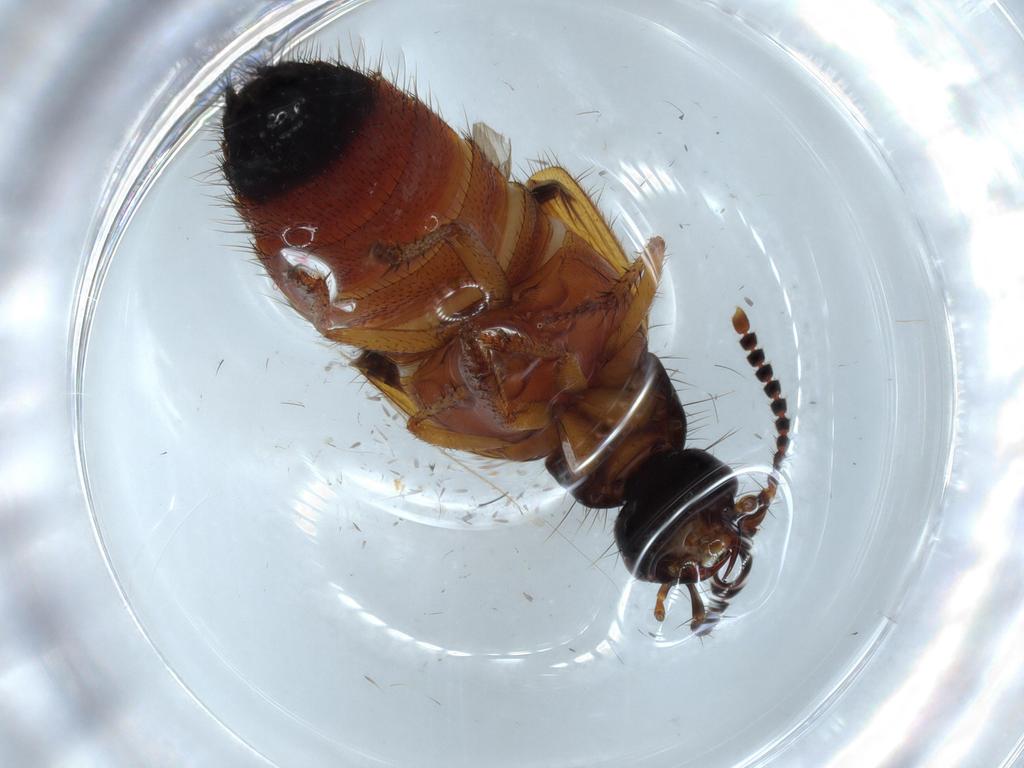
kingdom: Animalia
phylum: Arthropoda
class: Insecta
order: Coleoptera
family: Staphylinidae
